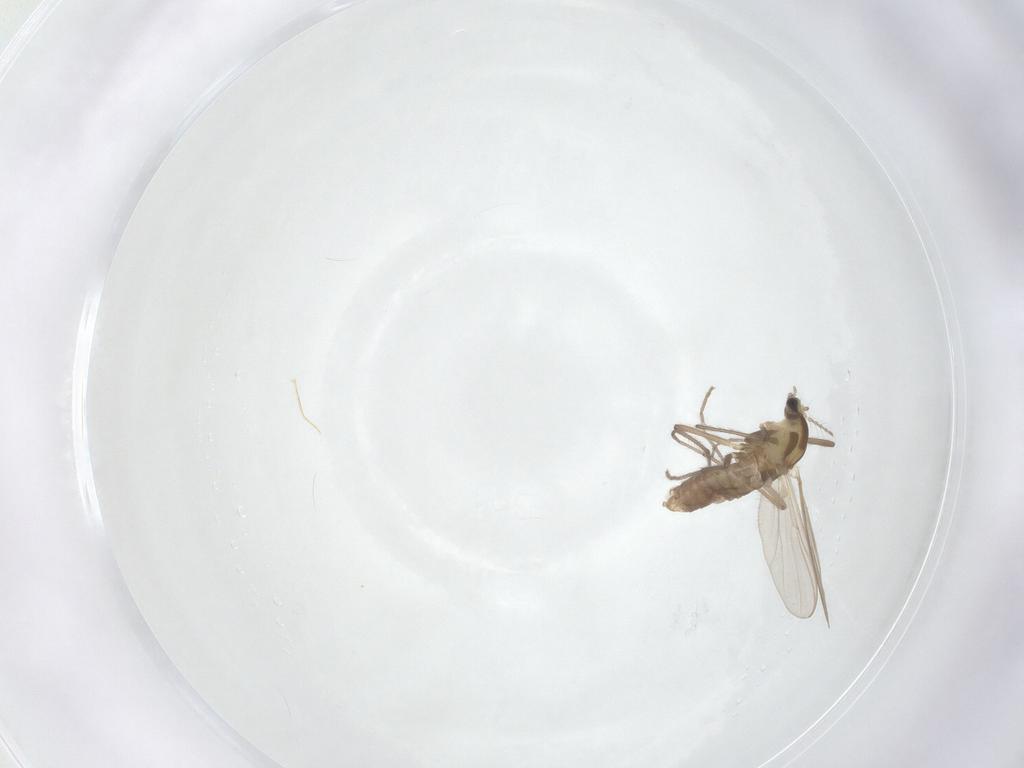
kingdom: Animalia
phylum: Arthropoda
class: Insecta
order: Diptera
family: Chironomidae
